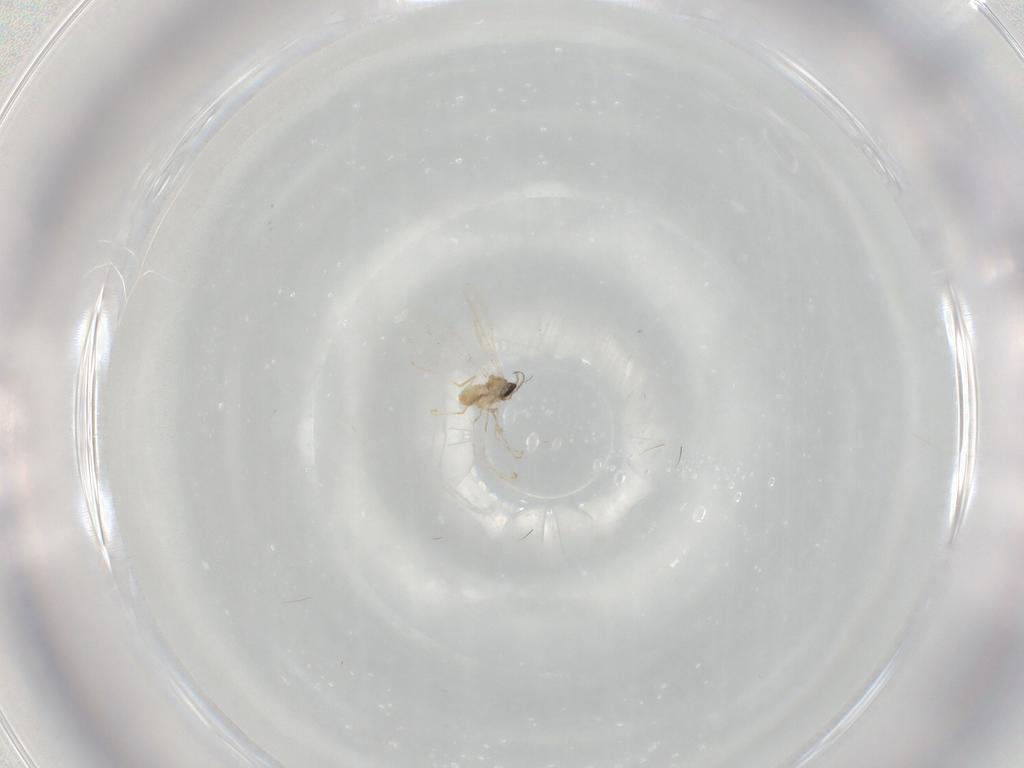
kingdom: Animalia
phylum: Arthropoda
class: Insecta
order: Diptera
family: Cecidomyiidae
